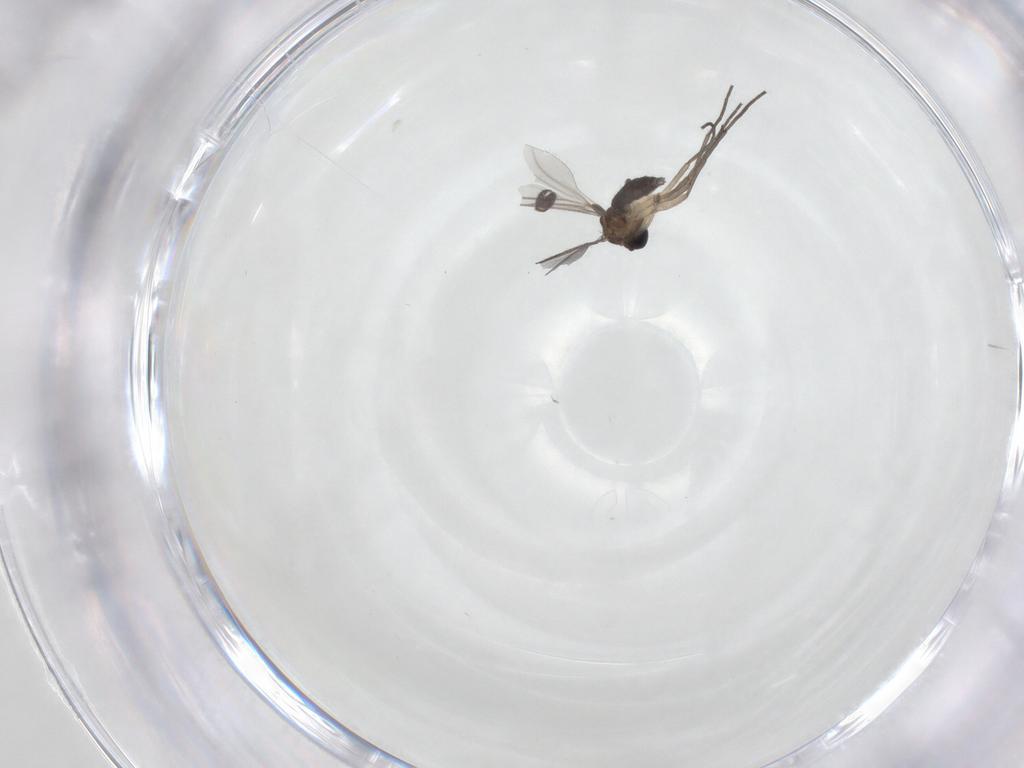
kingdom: Animalia
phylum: Arthropoda
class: Insecta
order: Diptera
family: Sciaridae
